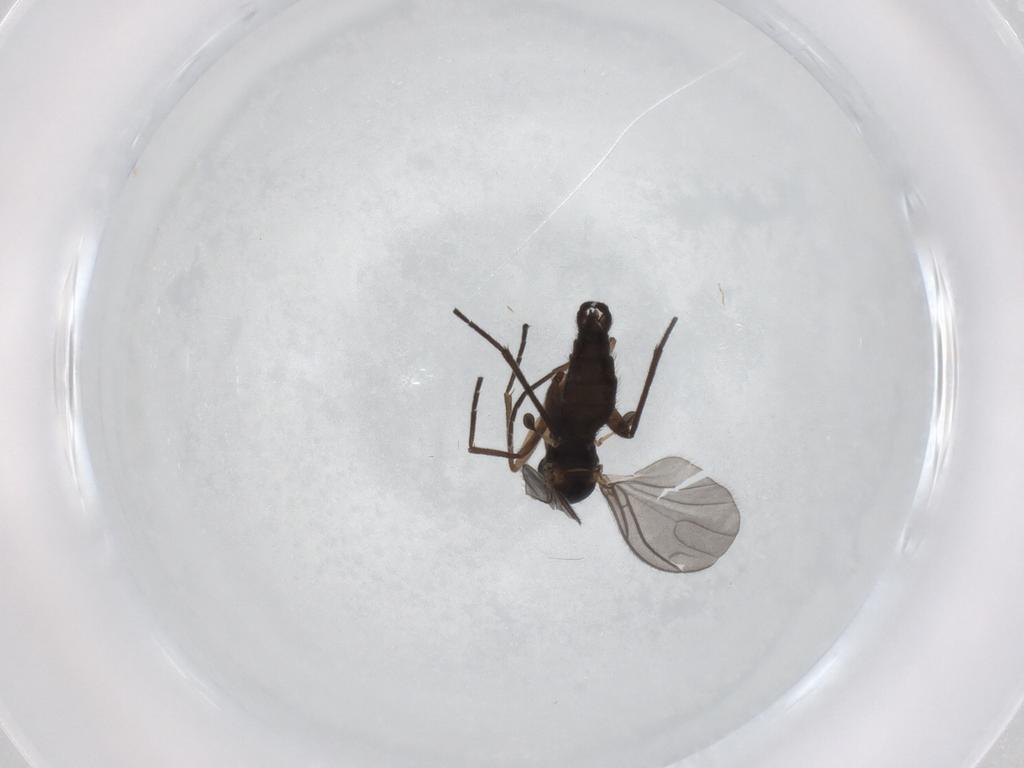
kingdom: Animalia
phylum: Arthropoda
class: Insecta
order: Diptera
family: Sciaridae
